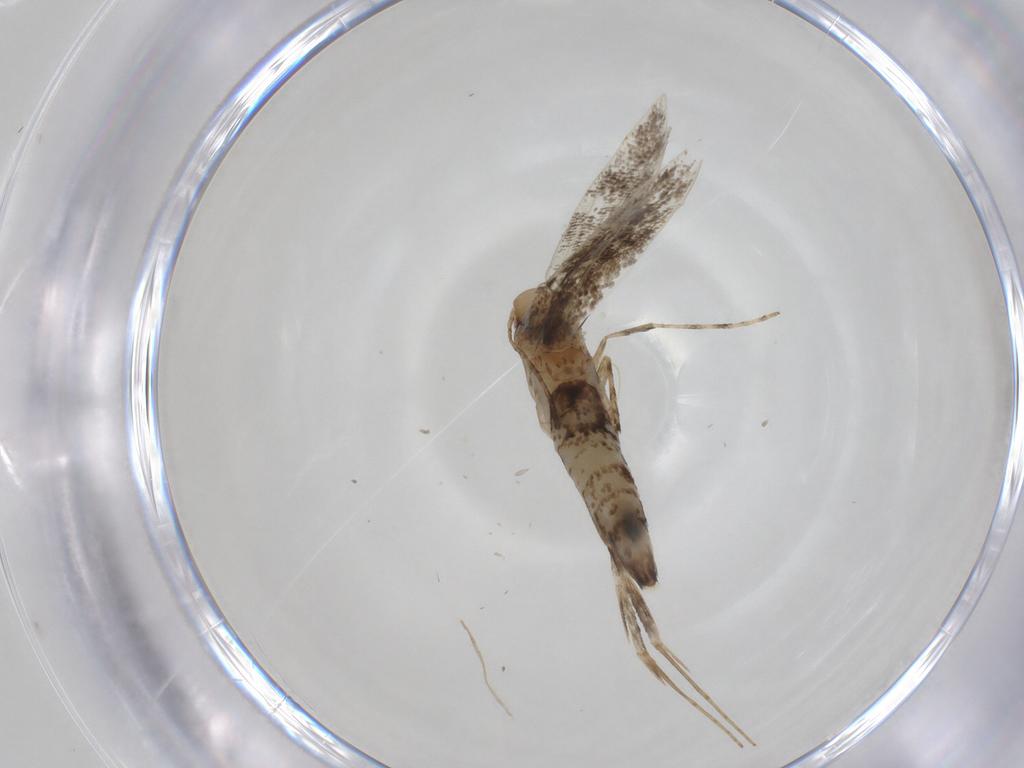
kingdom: Animalia
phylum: Arthropoda
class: Insecta
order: Lepidoptera
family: Gracillariidae
